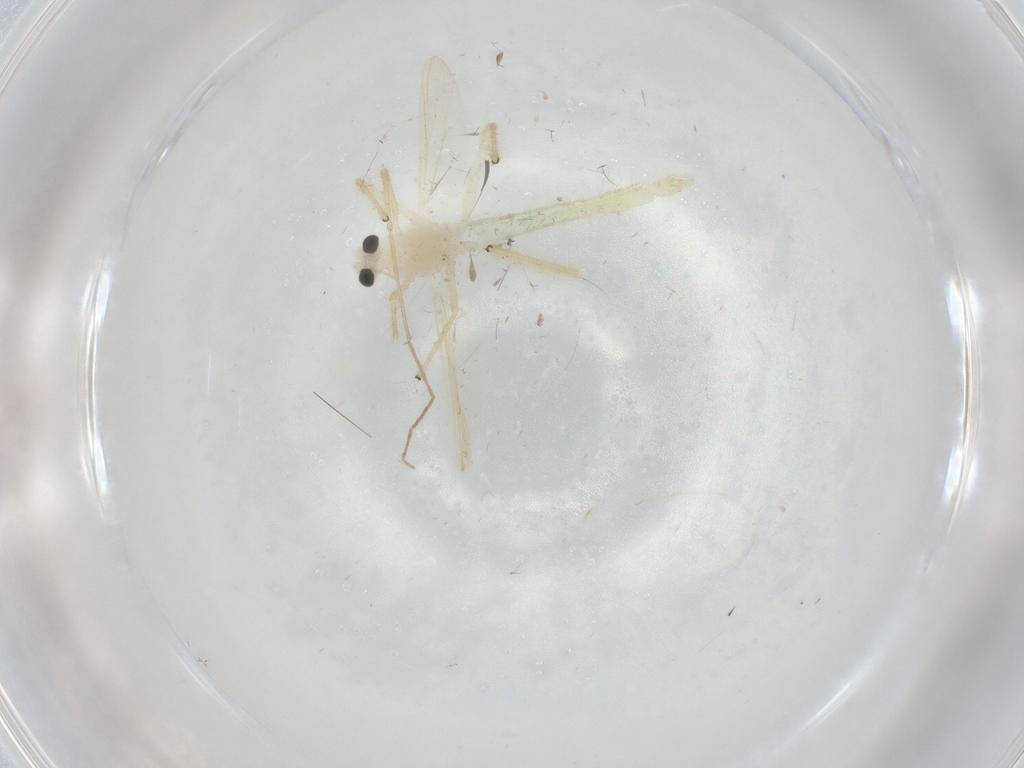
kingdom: Animalia
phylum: Arthropoda
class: Insecta
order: Diptera
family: Chironomidae
